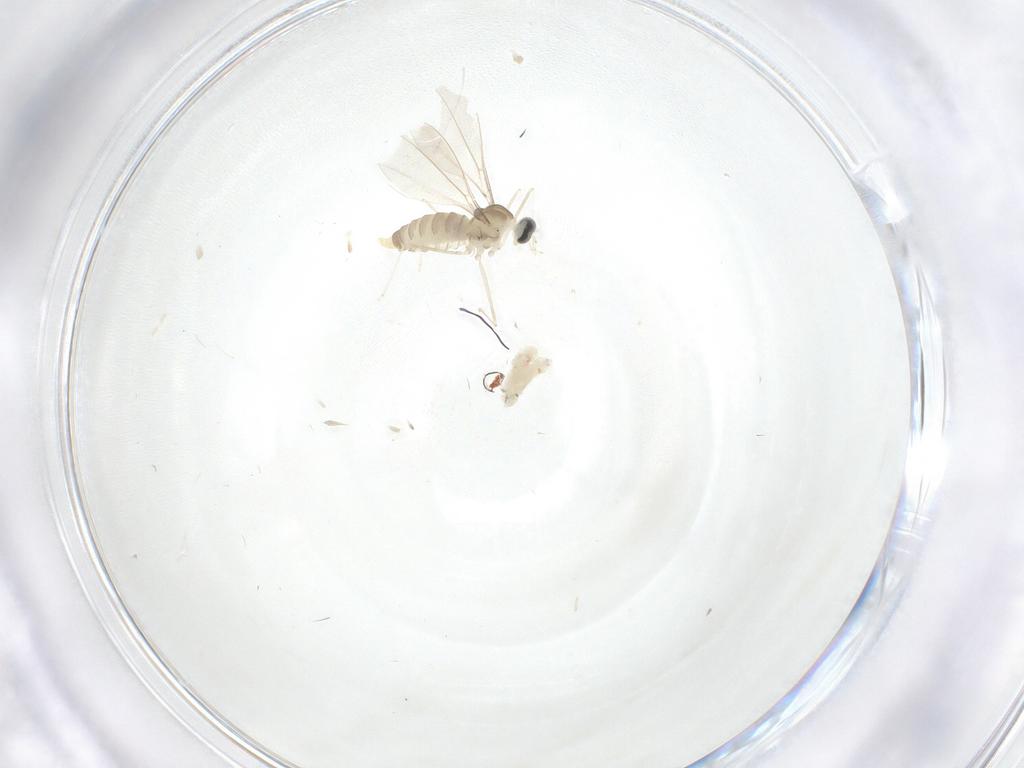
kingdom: Animalia
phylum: Arthropoda
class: Insecta
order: Diptera
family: Cecidomyiidae
